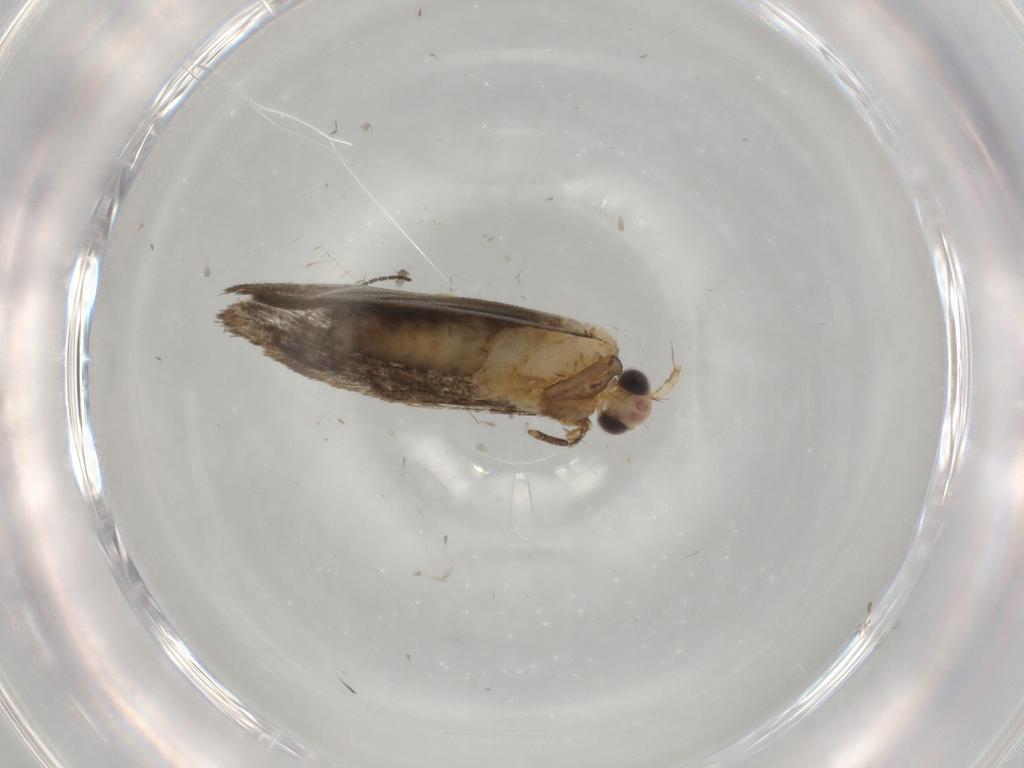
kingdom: Animalia
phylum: Arthropoda
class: Insecta
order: Lepidoptera
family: Tineidae
